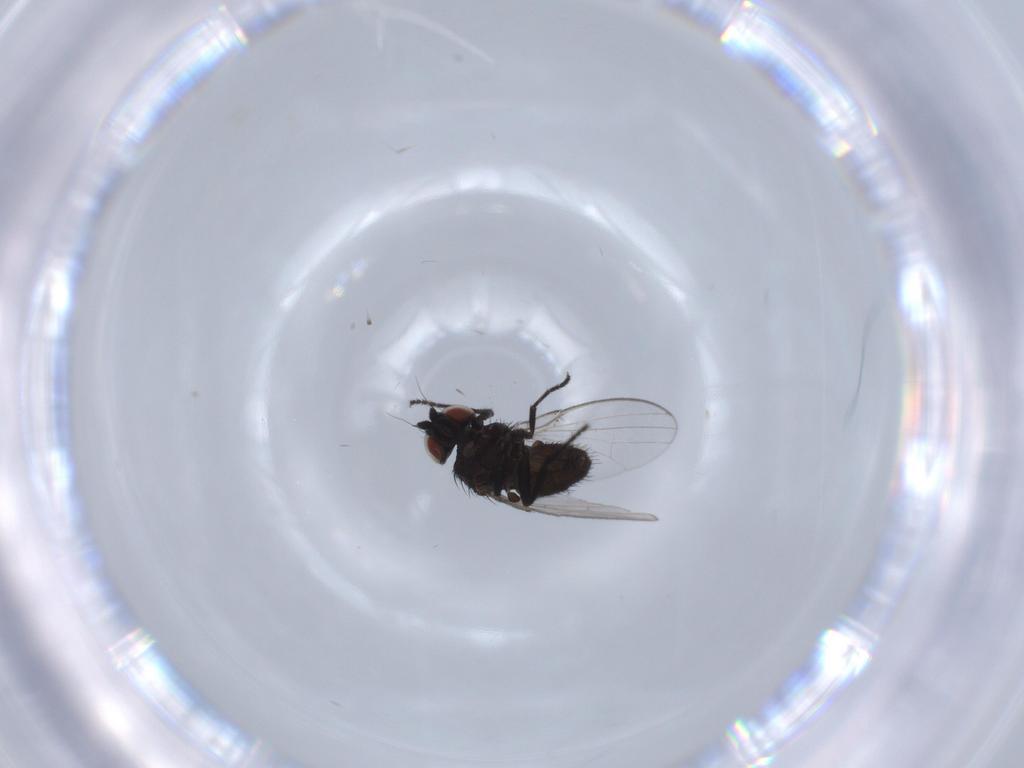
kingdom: Animalia
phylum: Arthropoda
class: Insecta
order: Diptera
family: Milichiidae
